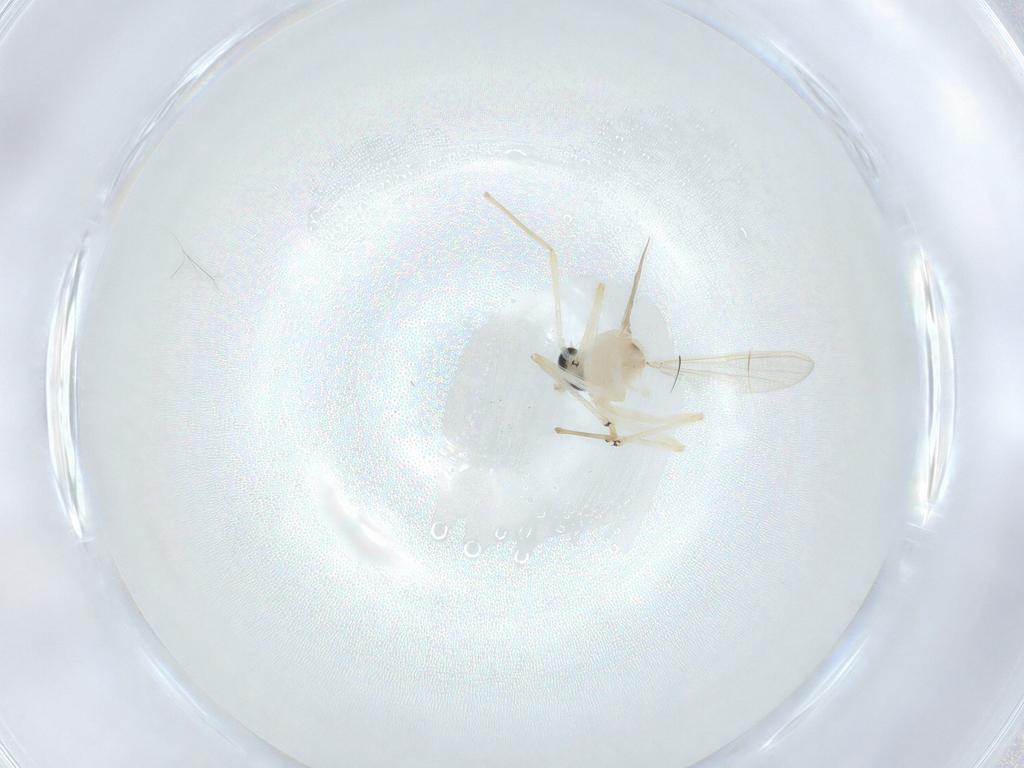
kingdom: Animalia
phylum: Arthropoda
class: Insecta
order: Diptera
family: Chironomidae
